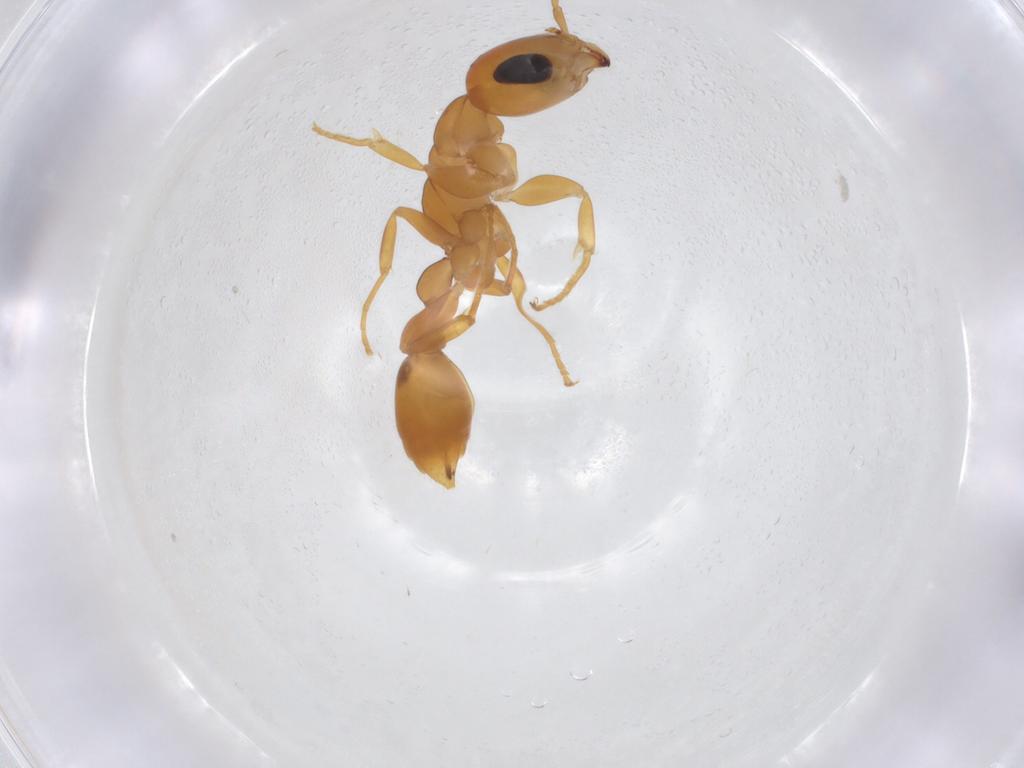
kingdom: Animalia
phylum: Arthropoda
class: Insecta
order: Hymenoptera
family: Formicidae
